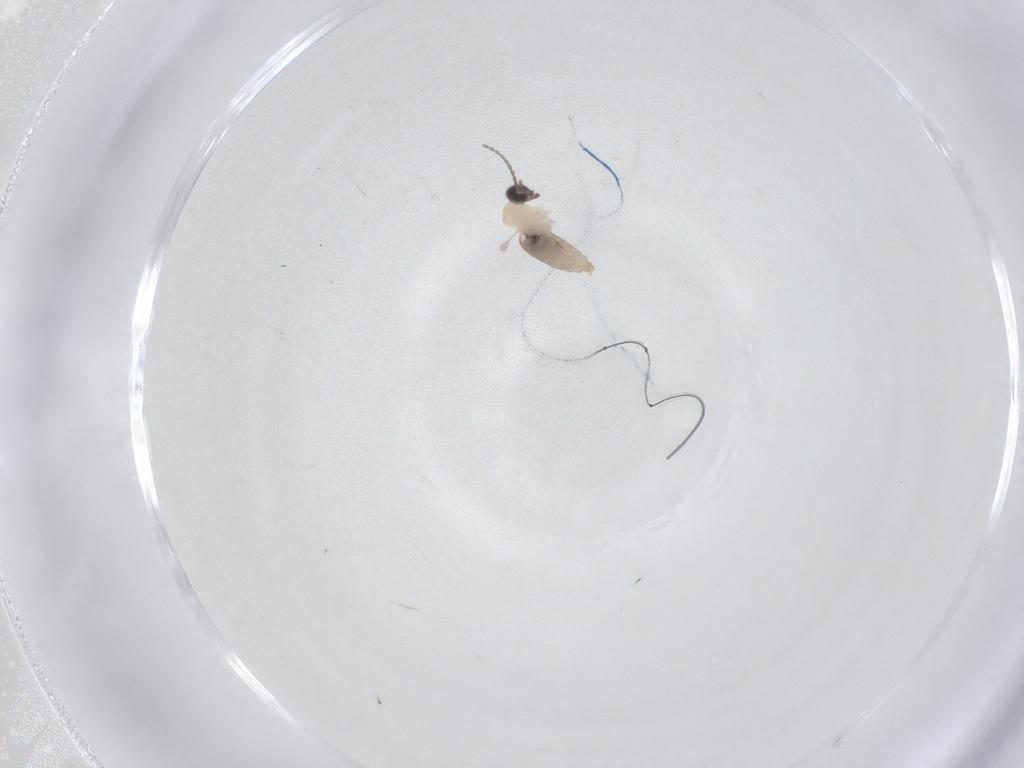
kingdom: Animalia
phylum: Arthropoda
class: Insecta
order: Diptera
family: Cecidomyiidae
